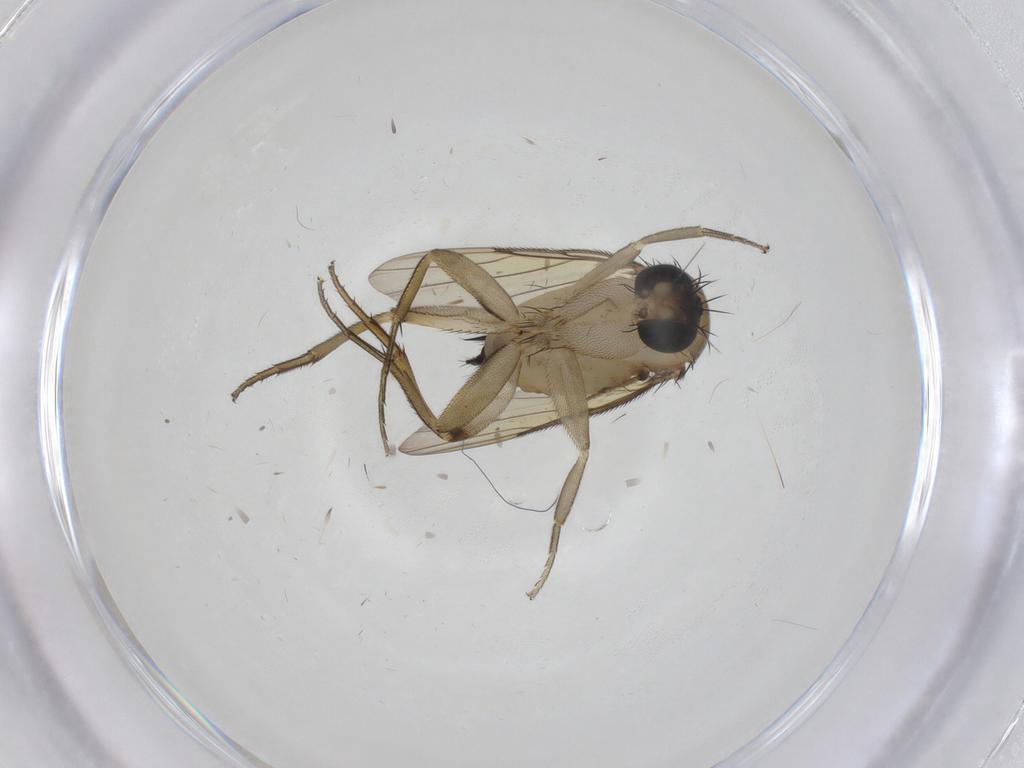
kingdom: Animalia
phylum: Arthropoda
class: Insecta
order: Diptera
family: Phoridae
